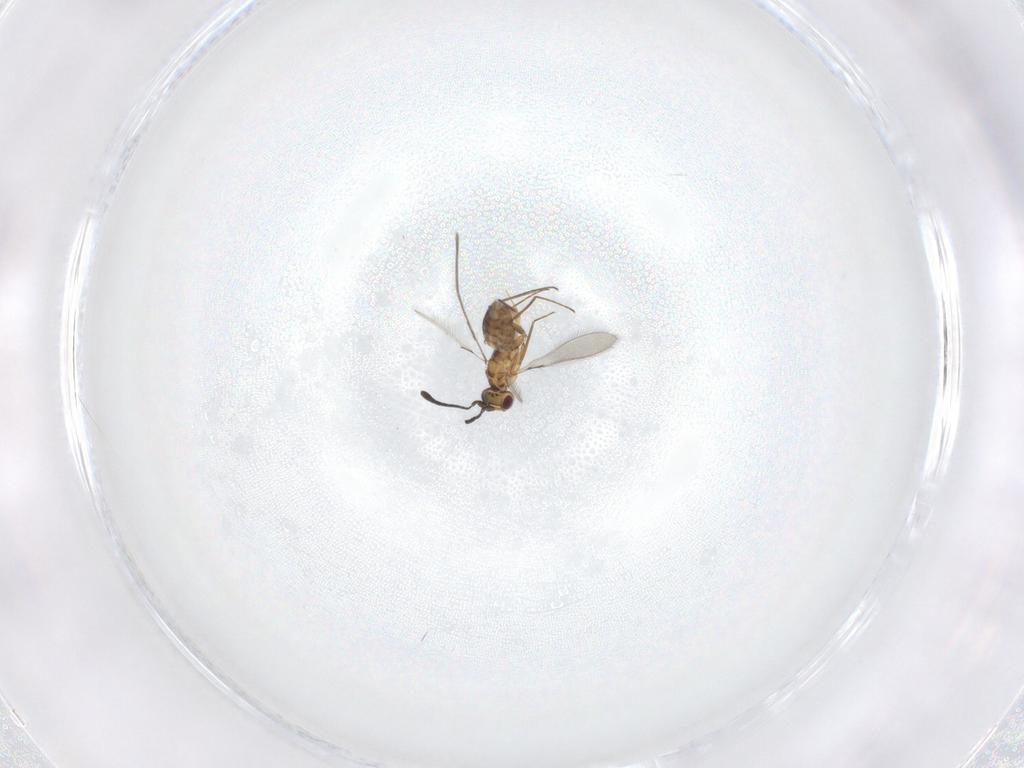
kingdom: Animalia
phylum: Arthropoda
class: Insecta
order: Hymenoptera
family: Mymaridae
